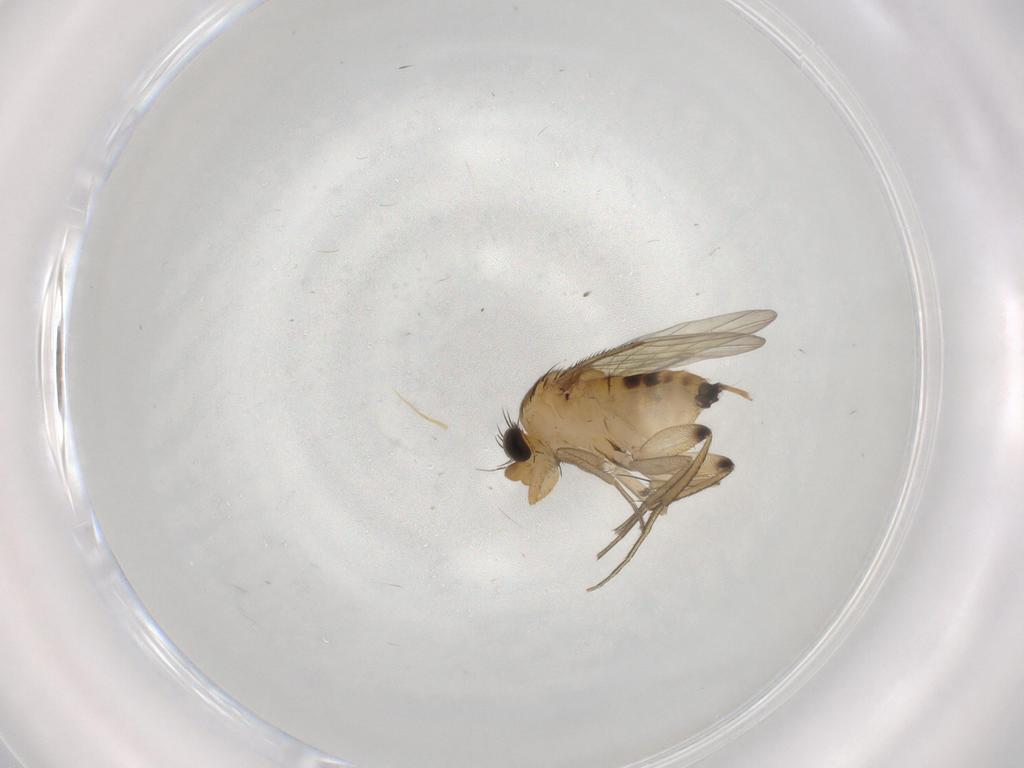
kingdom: Animalia
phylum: Arthropoda
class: Insecta
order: Diptera
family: Phoridae
